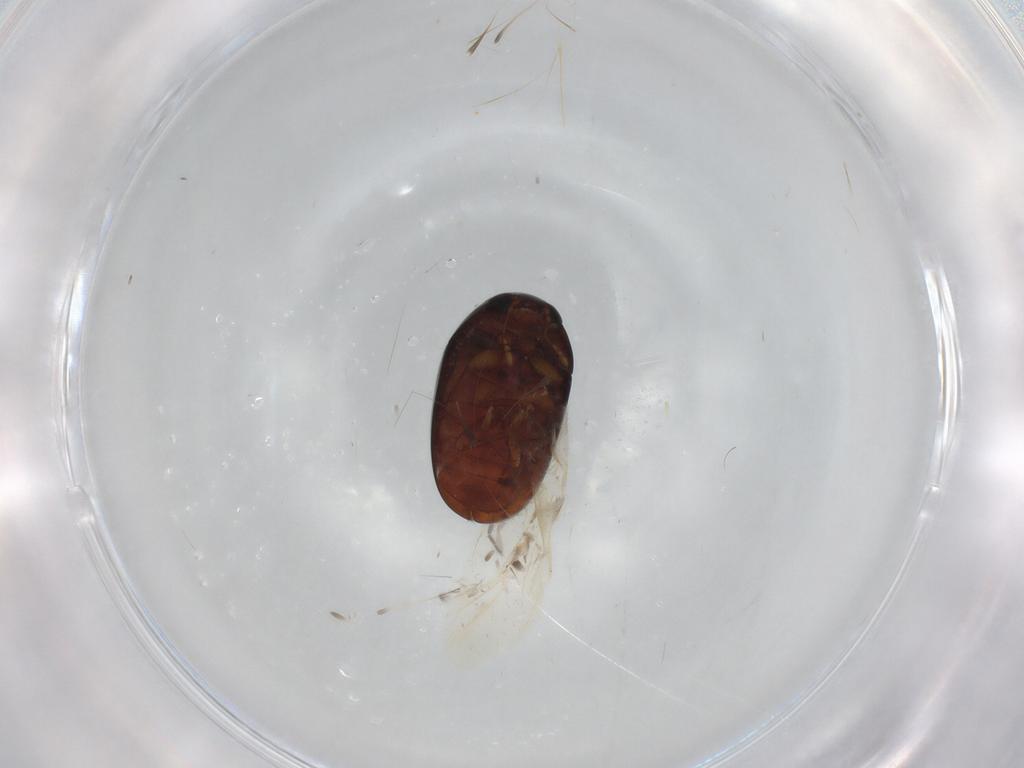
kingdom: Animalia
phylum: Arthropoda
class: Insecta
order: Coleoptera
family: Phalacridae
